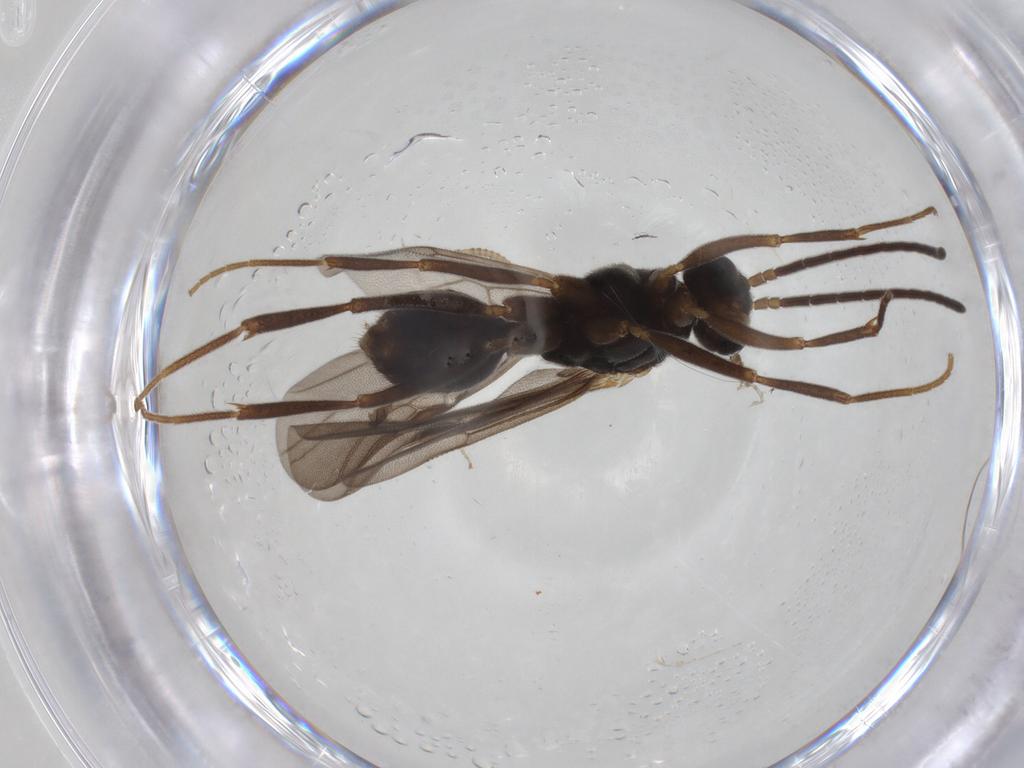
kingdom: Animalia
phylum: Arthropoda
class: Insecta
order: Hymenoptera
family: Formicidae
